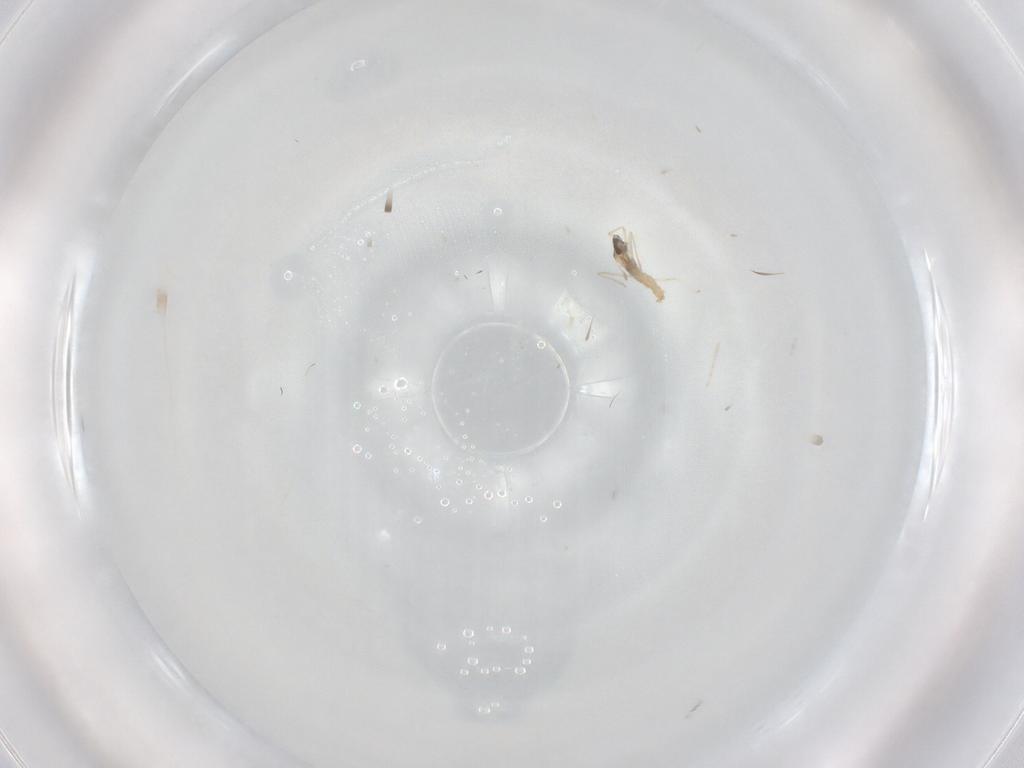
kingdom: Animalia
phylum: Arthropoda
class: Insecta
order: Diptera
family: Cecidomyiidae
